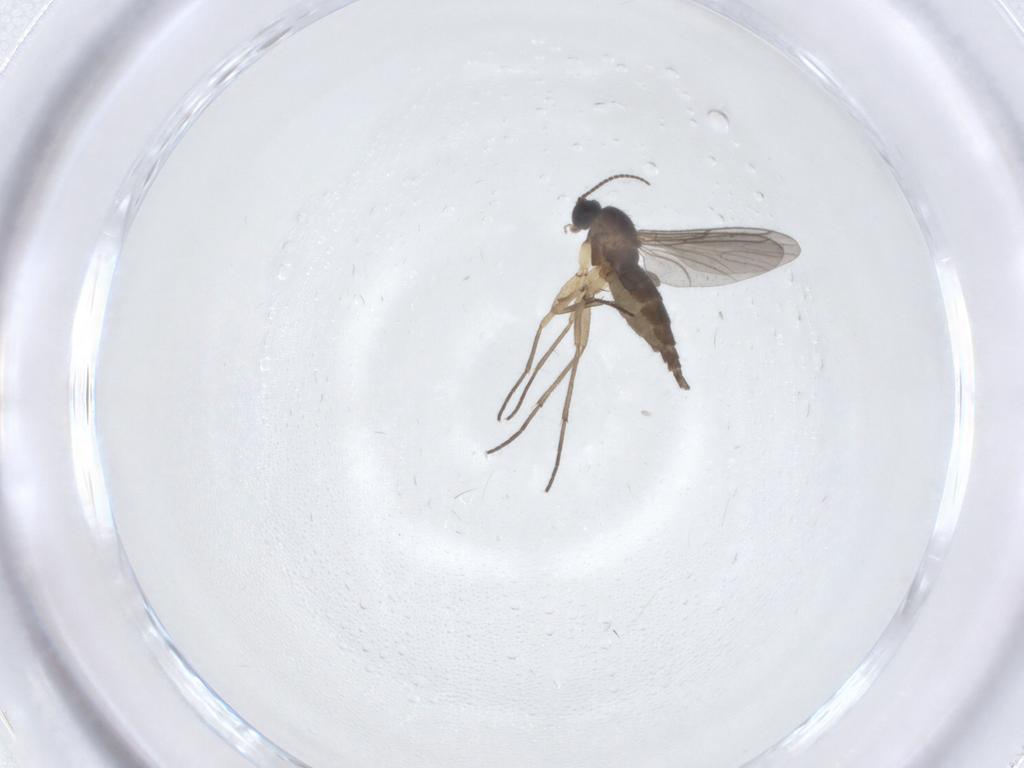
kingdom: Animalia
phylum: Arthropoda
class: Insecta
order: Diptera
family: Sciaridae
